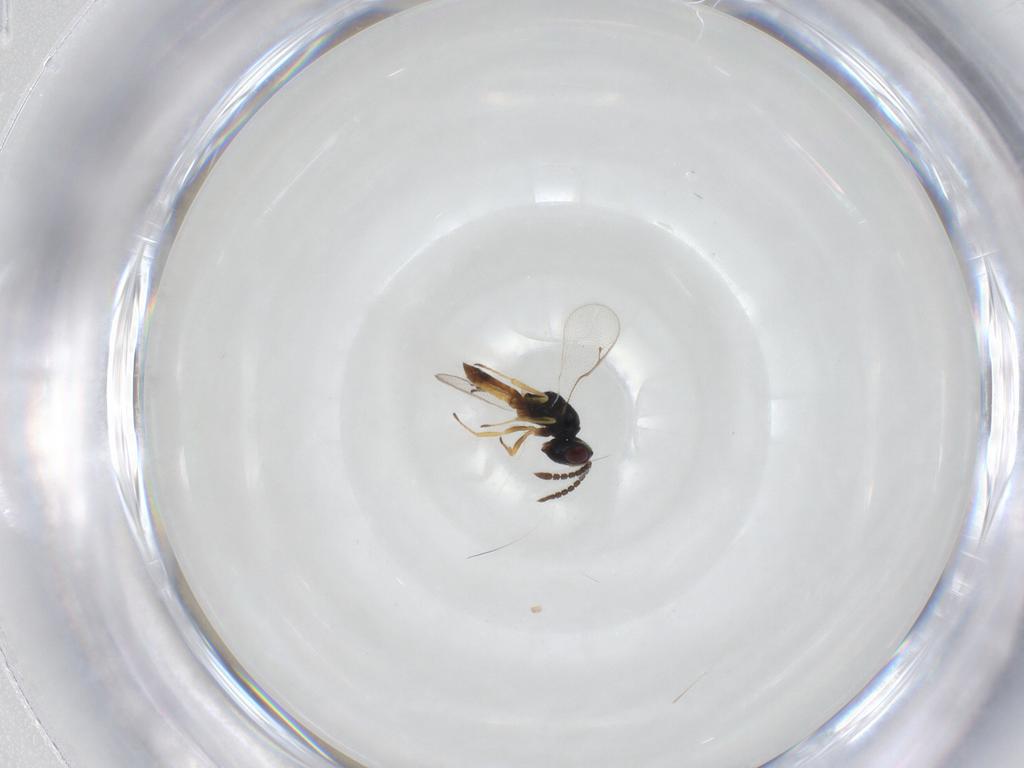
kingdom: Animalia
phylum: Arthropoda
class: Insecta
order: Hymenoptera
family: Pteromalidae
